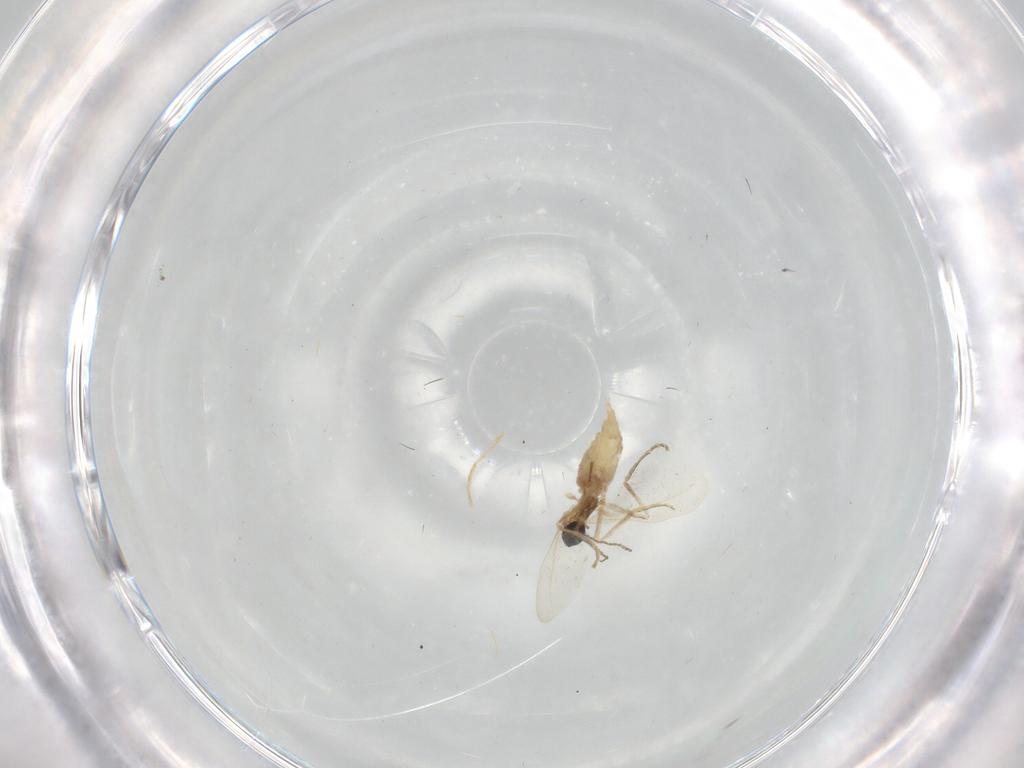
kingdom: Animalia
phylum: Arthropoda
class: Insecta
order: Diptera
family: Cecidomyiidae
